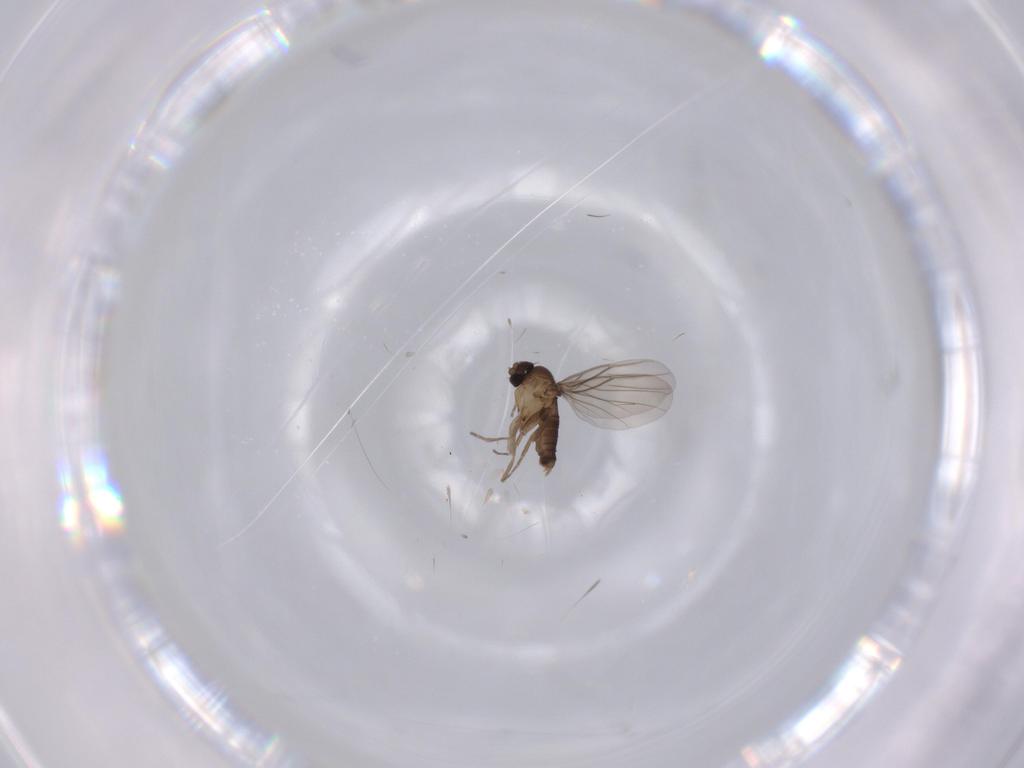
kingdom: Animalia
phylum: Arthropoda
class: Insecta
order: Diptera
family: Phoridae
